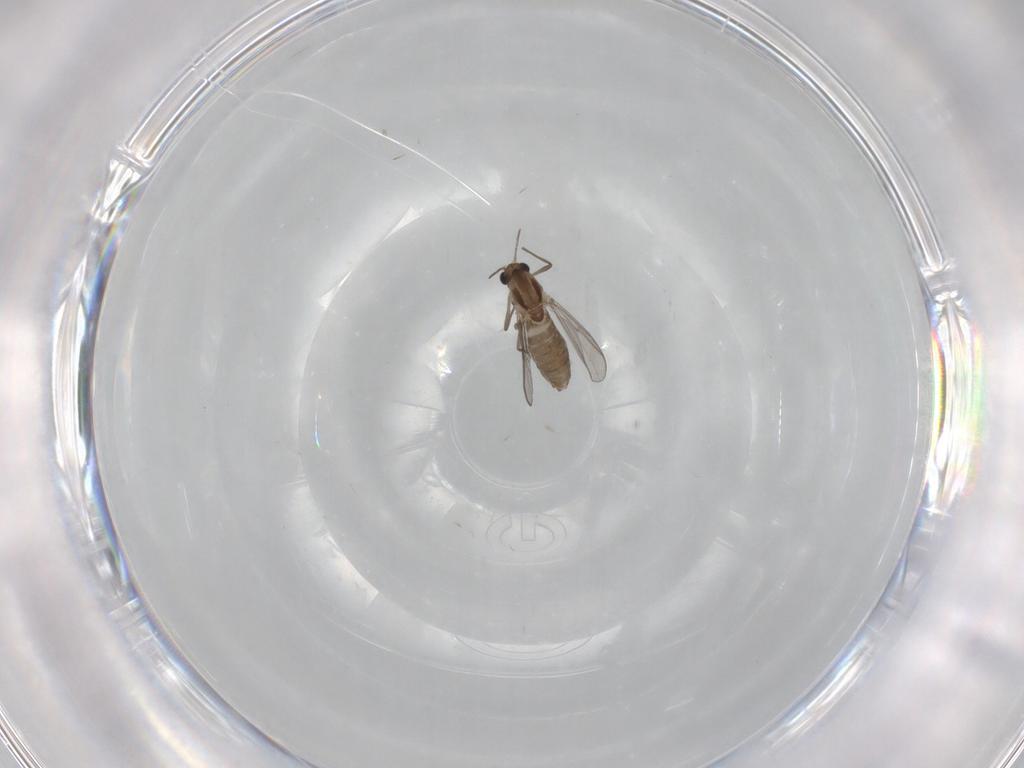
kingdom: Animalia
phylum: Arthropoda
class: Insecta
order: Diptera
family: Chironomidae
